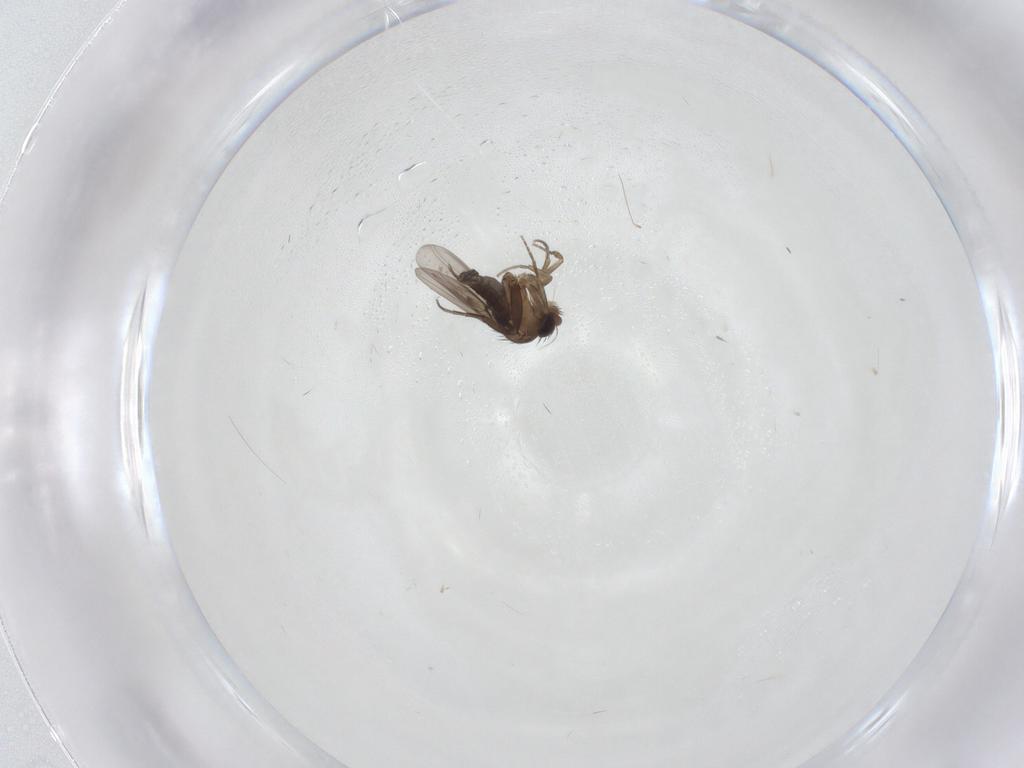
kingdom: Animalia
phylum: Arthropoda
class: Insecta
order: Diptera
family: Phoridae
